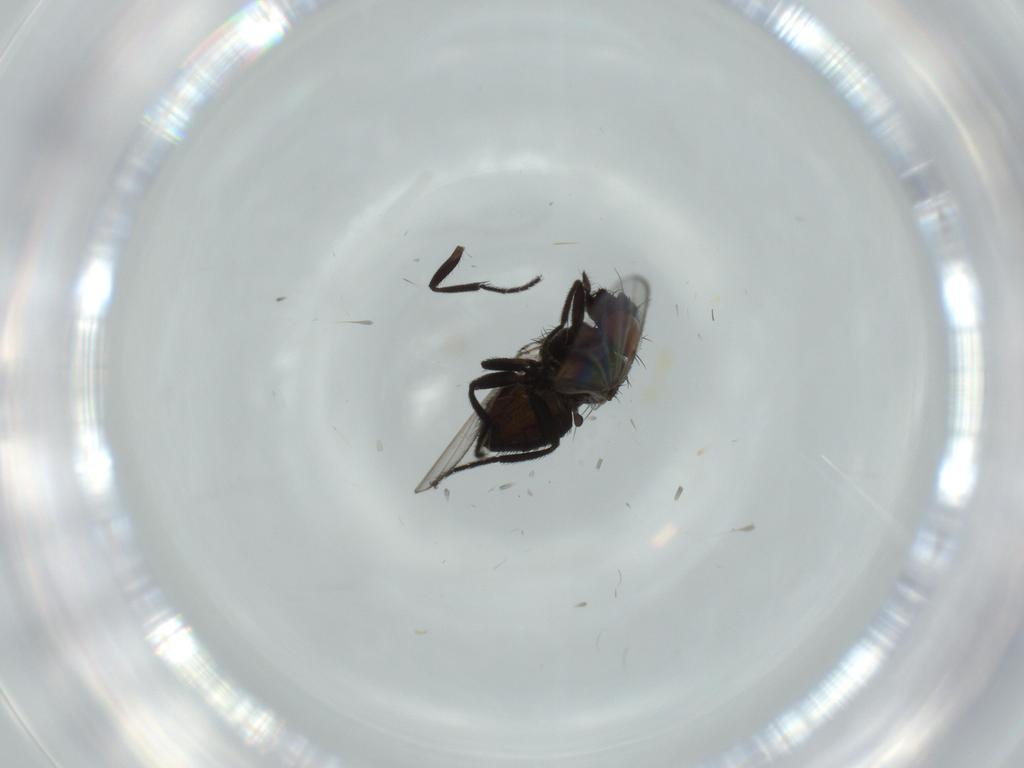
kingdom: Animalia
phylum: Arthropoda
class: Insecta
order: Diptera
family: Milichiidae
